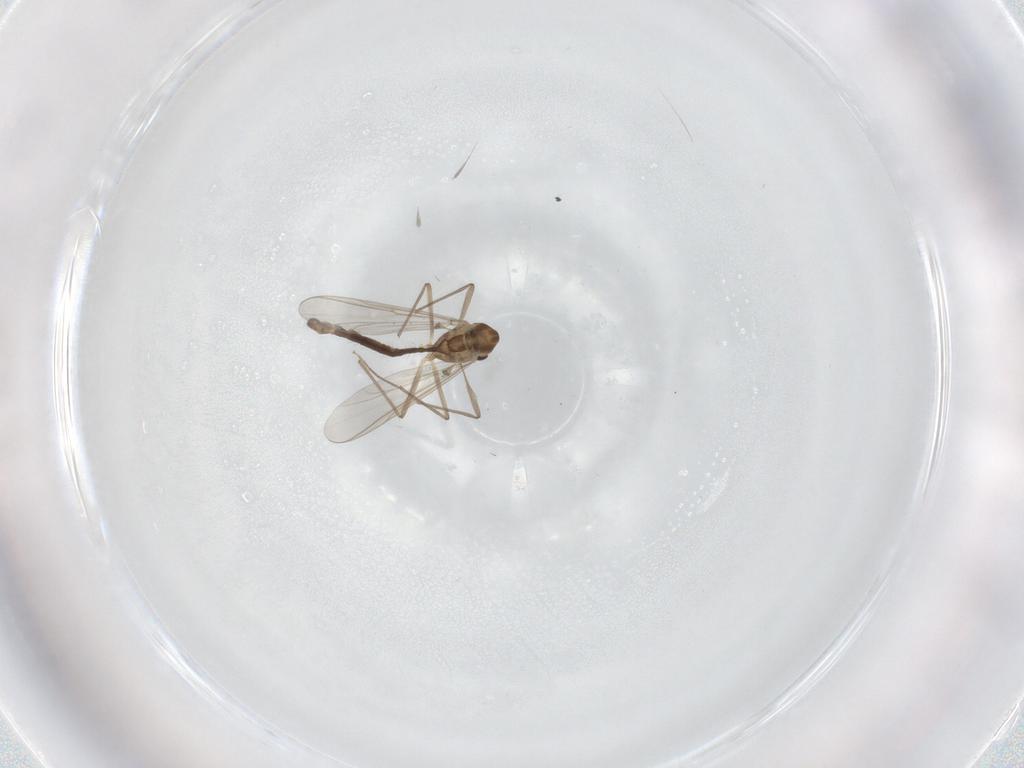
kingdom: Animalia
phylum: Arthropoda
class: Insecta
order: Diptera
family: Chironomidae
